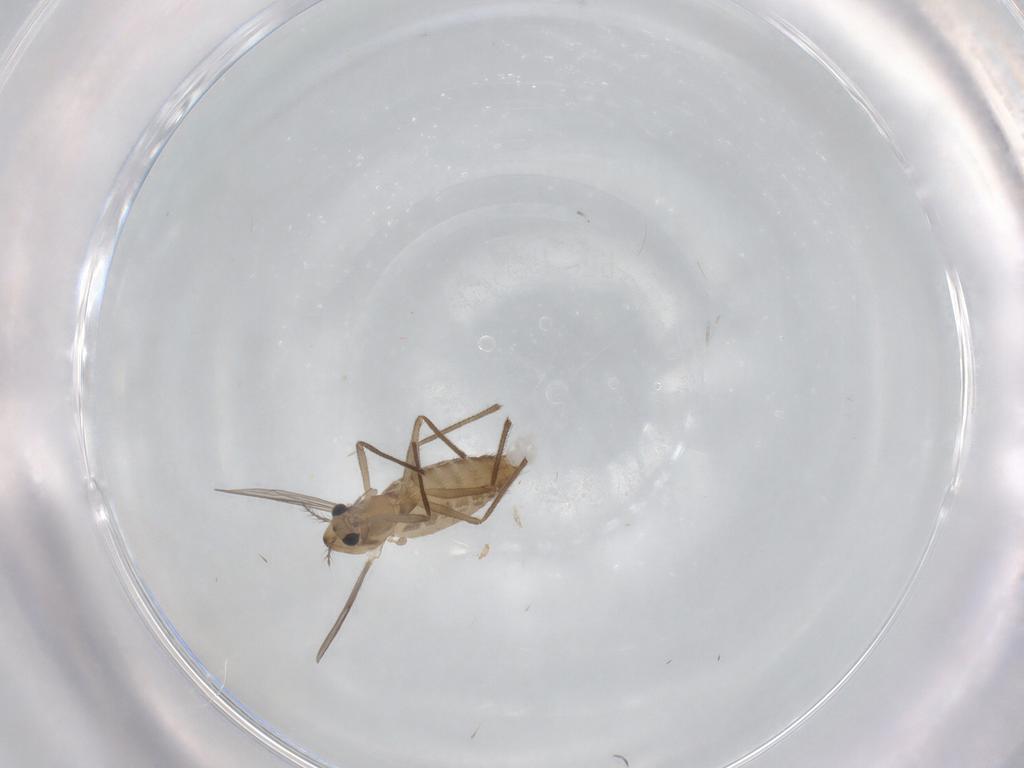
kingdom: Animalia
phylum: Arthropoda
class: Insecta
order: Diptera
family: Chironomidae
